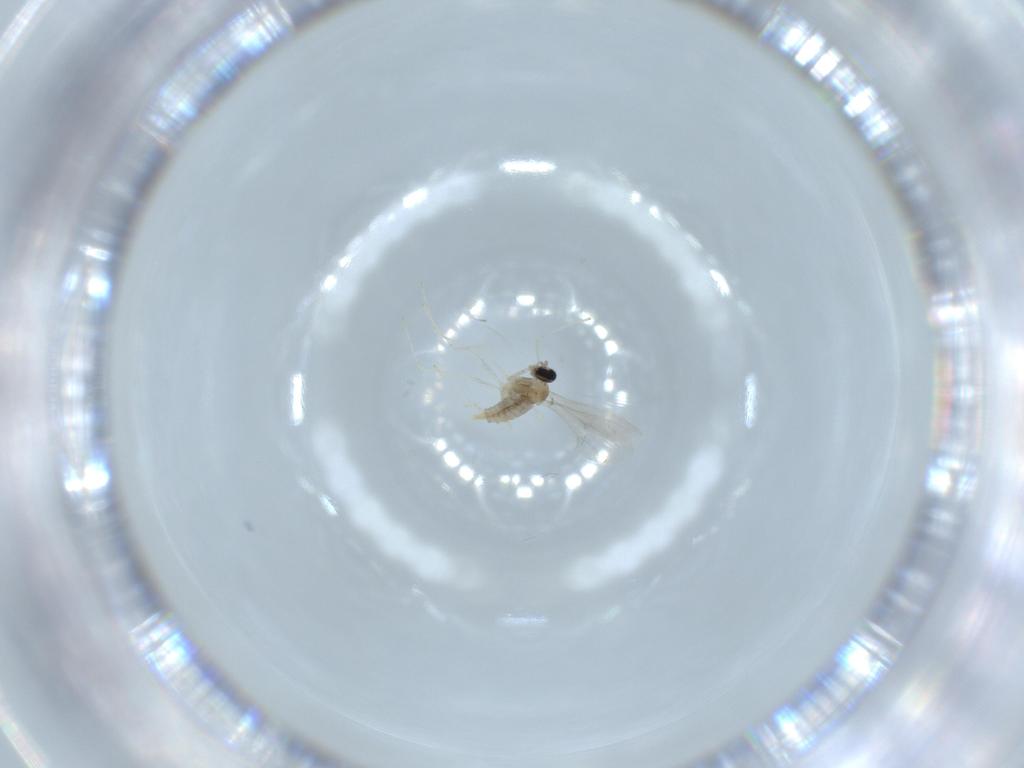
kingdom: Animalia
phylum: Arthropoda
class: Insecta
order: Diptera
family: Cecidomyiidae
